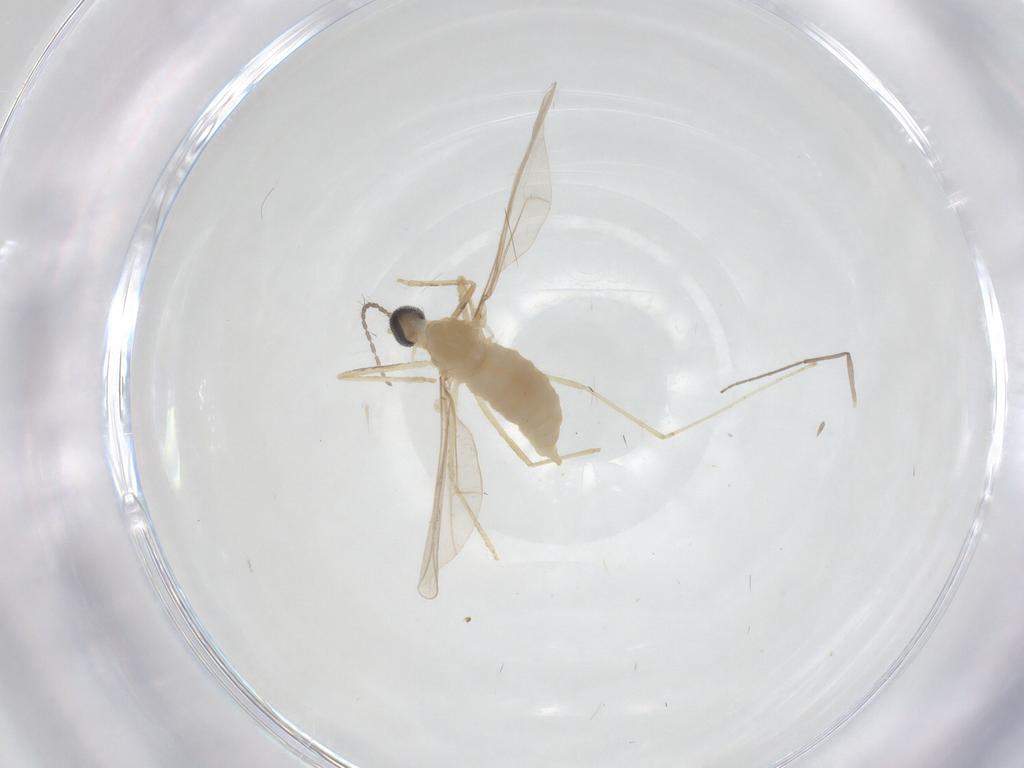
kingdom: Animalia
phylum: Arthropoda
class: Insecta
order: Diptera
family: Cecidomyiidae
